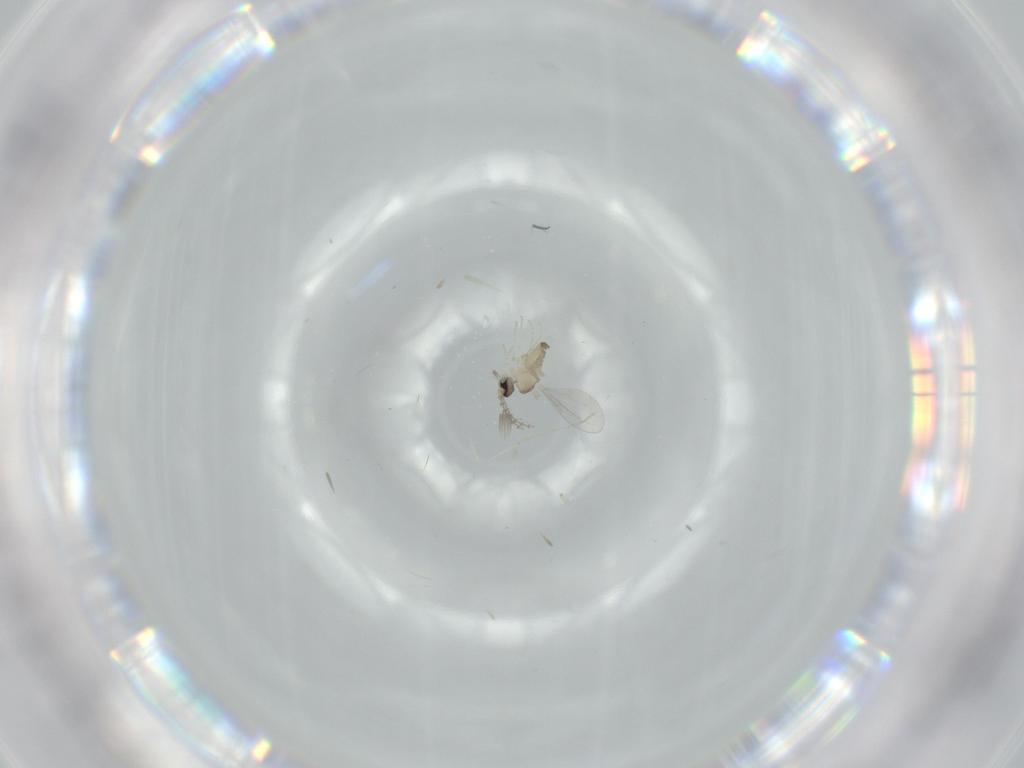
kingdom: Animalia
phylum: Arthropoda
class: Insecta
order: Diptera
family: Cecidomyiidae
